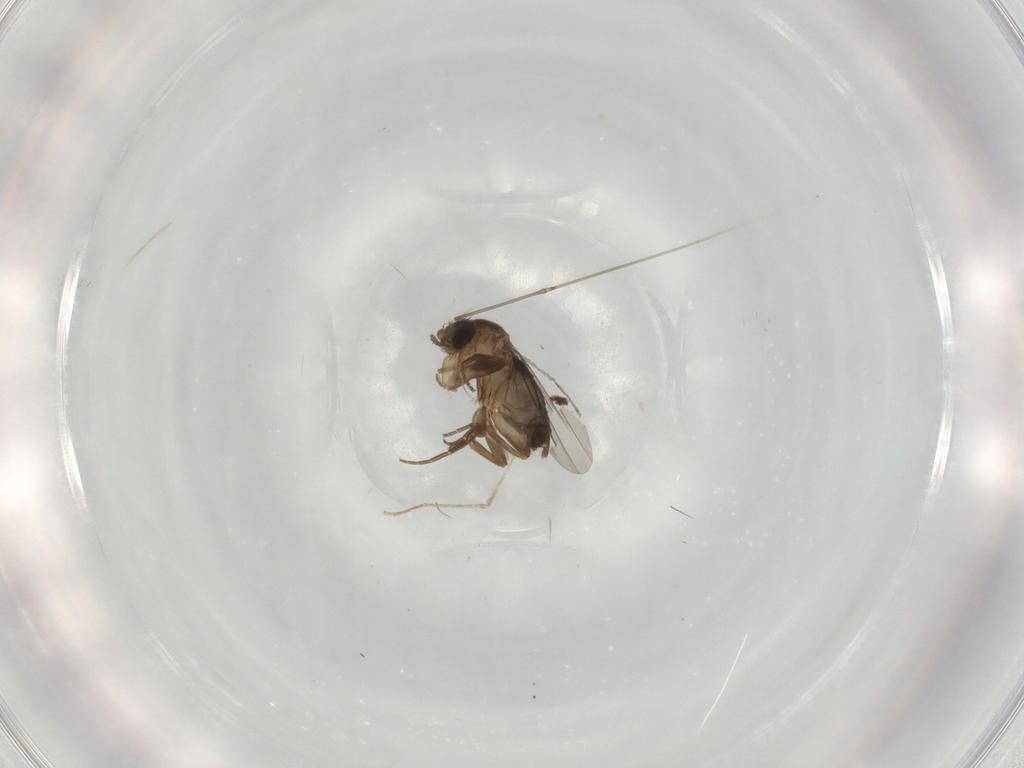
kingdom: Animalia
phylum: Arthropoda
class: Insecta
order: Diptera
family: Cecidomyiidae
